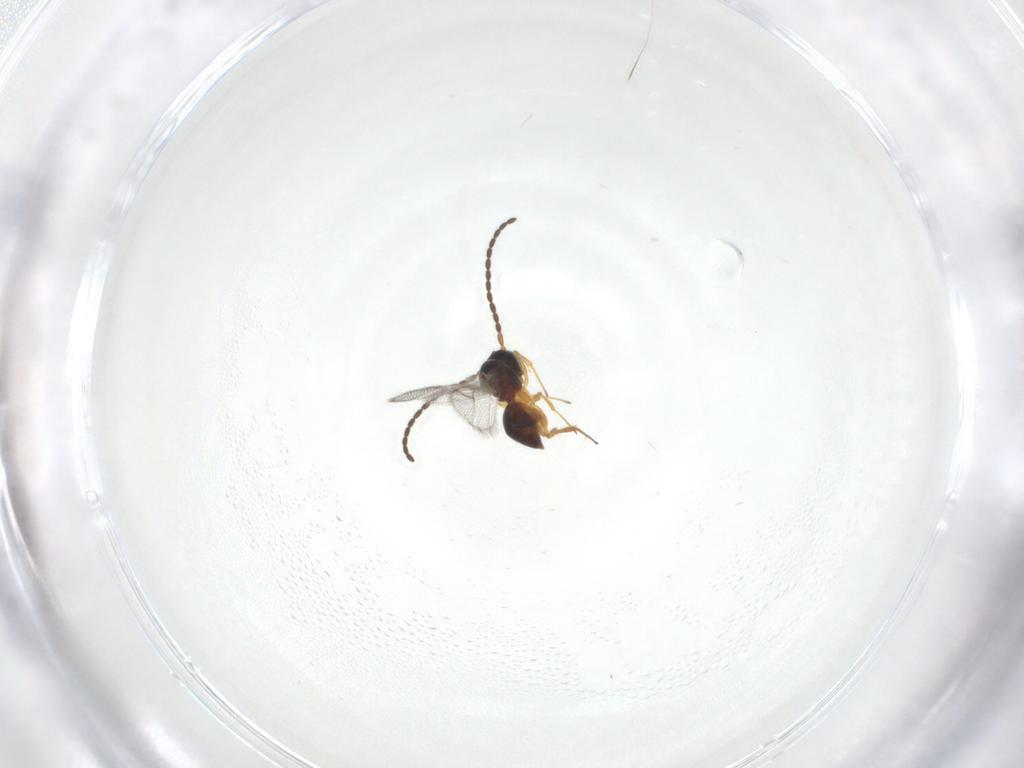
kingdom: Animalia
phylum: Arthropoda
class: Insecta
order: Hymenoptera
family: Figitidae
